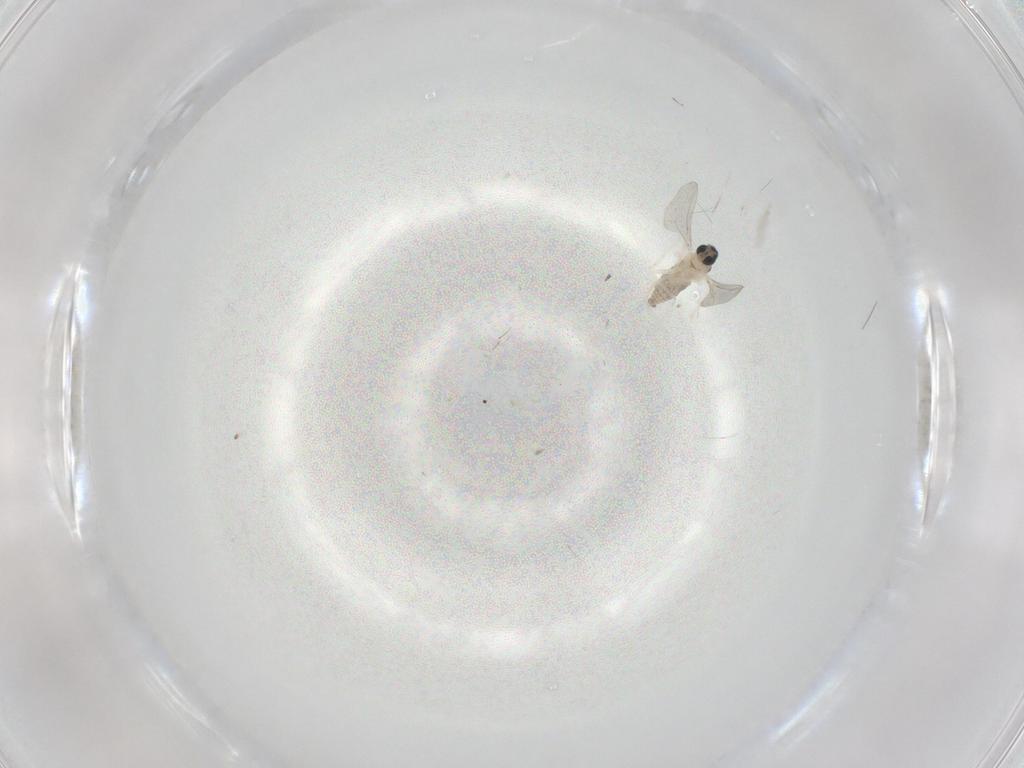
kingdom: Animalia
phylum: Arthropoda
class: Insecta
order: Diptera
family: Cecidomyiidae
